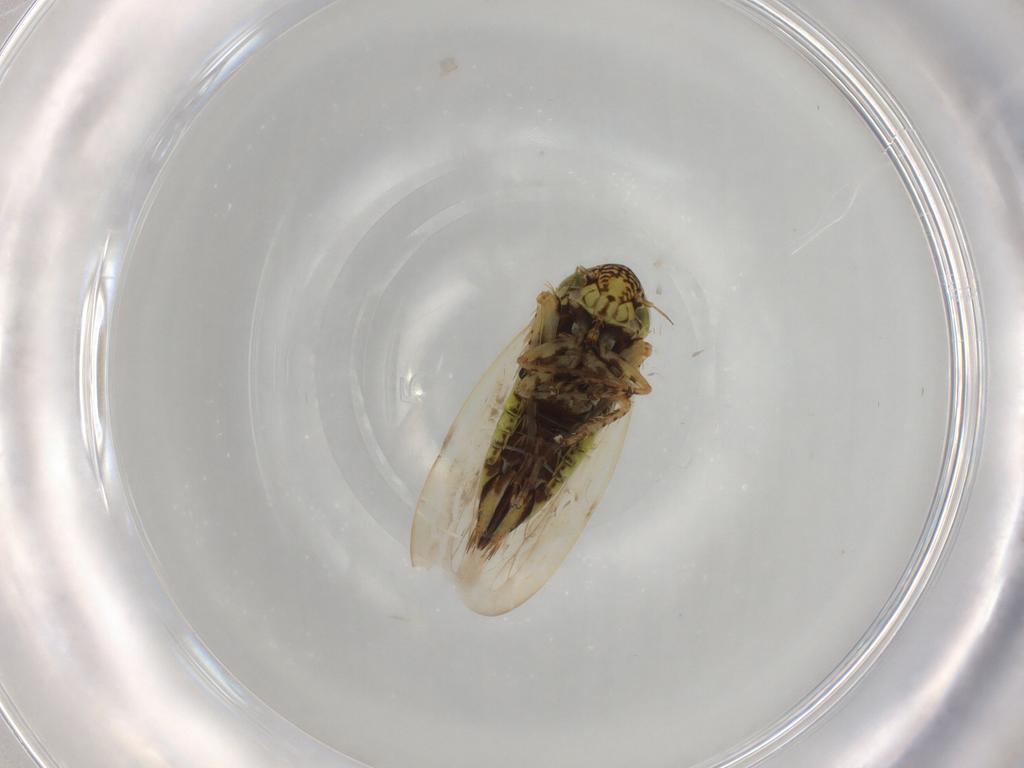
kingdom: Animalia
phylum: Arthropoda
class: Insecta
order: Hemiptera
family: Cicadellidae
